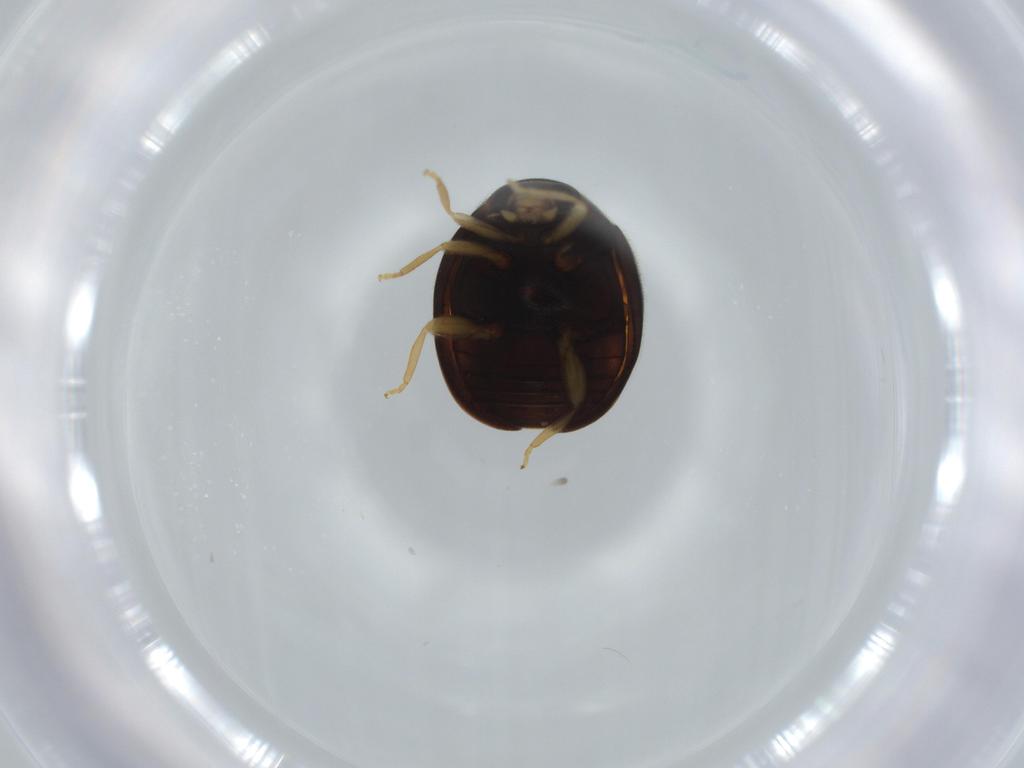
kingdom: Animalia
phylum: Arthropoda
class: Insecta
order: Coleoptera
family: Coccinellidae
